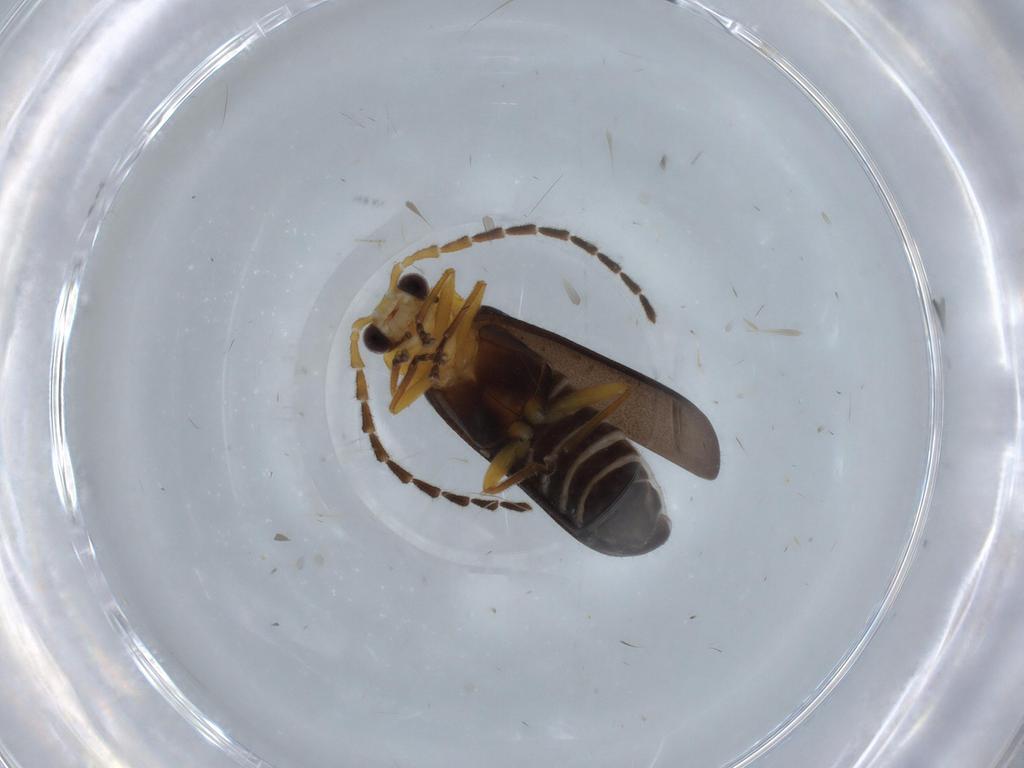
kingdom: Animalia
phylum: Arthropoda
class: Insecta
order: Coleoptera
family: Cantharidae
